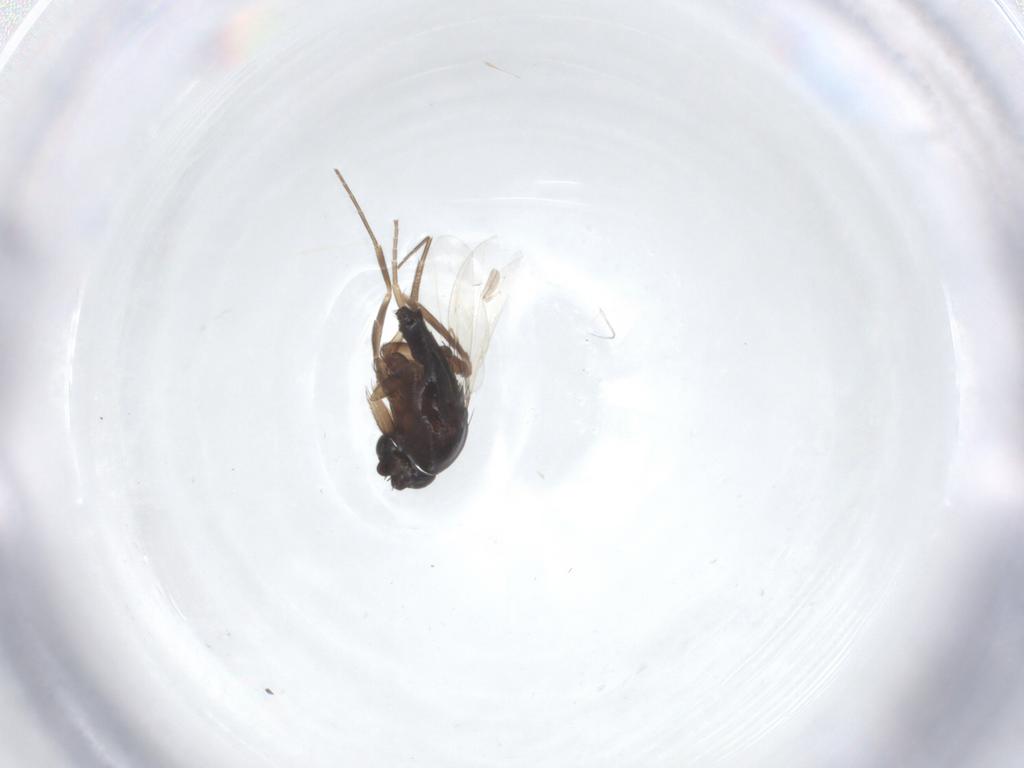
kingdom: Animalia
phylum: Arthropoda
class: Insecta
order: Diptera
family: Phoridae
